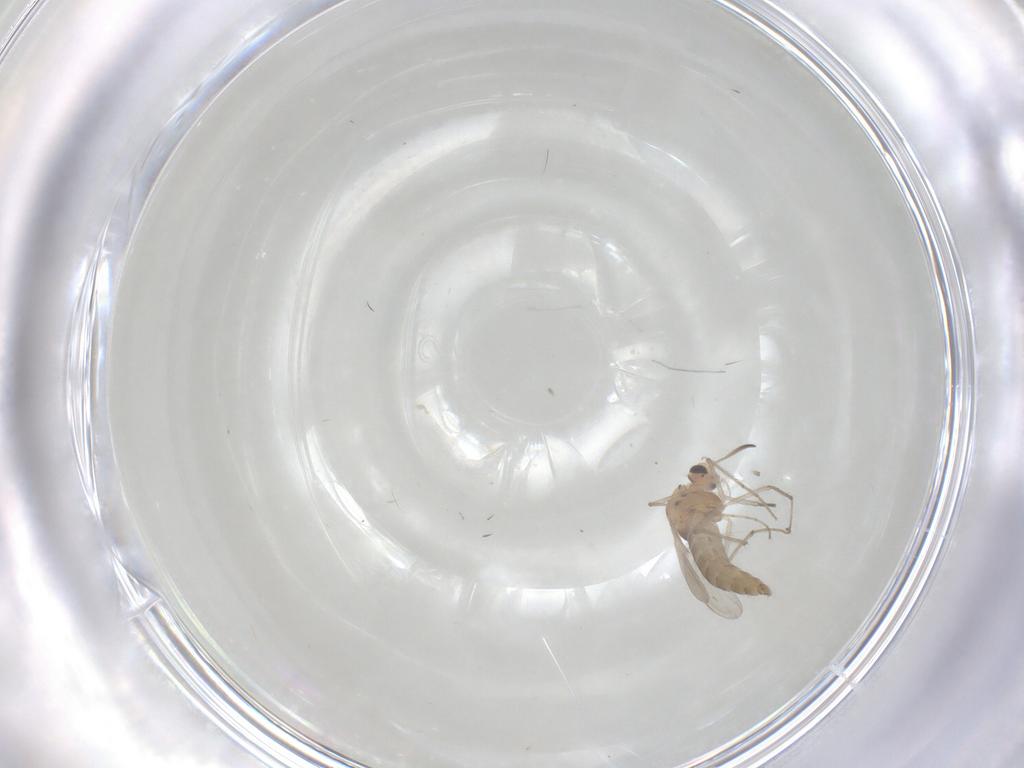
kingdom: Animalia
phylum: Arthropoda
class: Insecta
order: Diptera
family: Chironomidae
